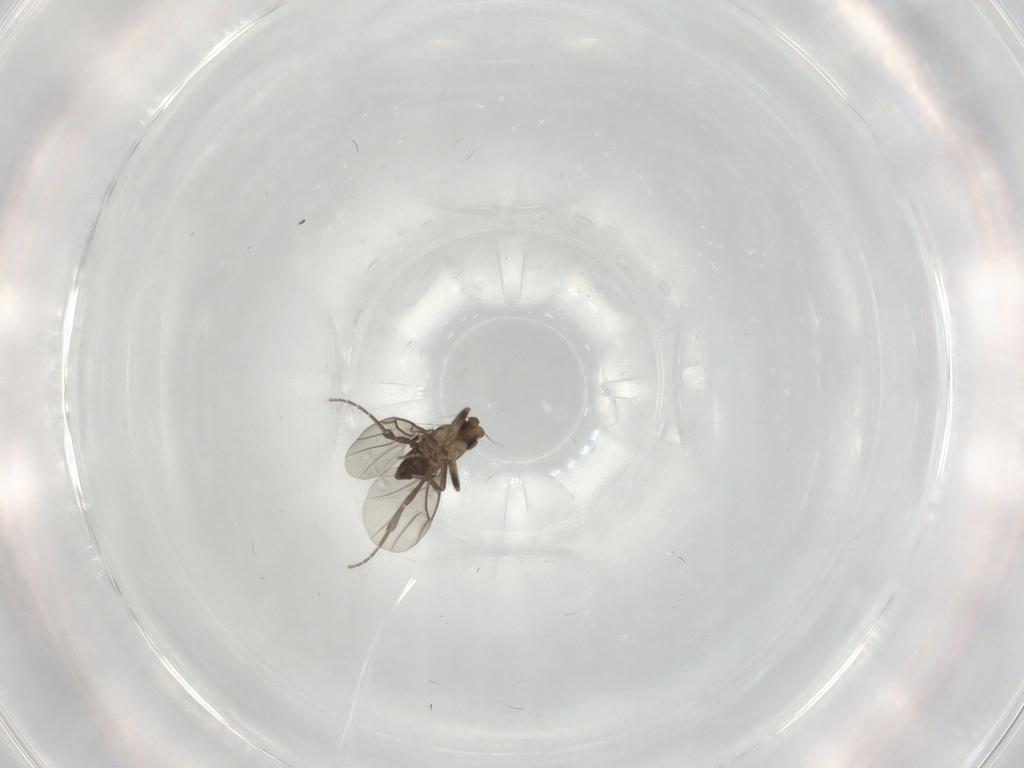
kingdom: Animalia
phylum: Arthropoda
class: Insecta
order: Diptera
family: Phoridae
